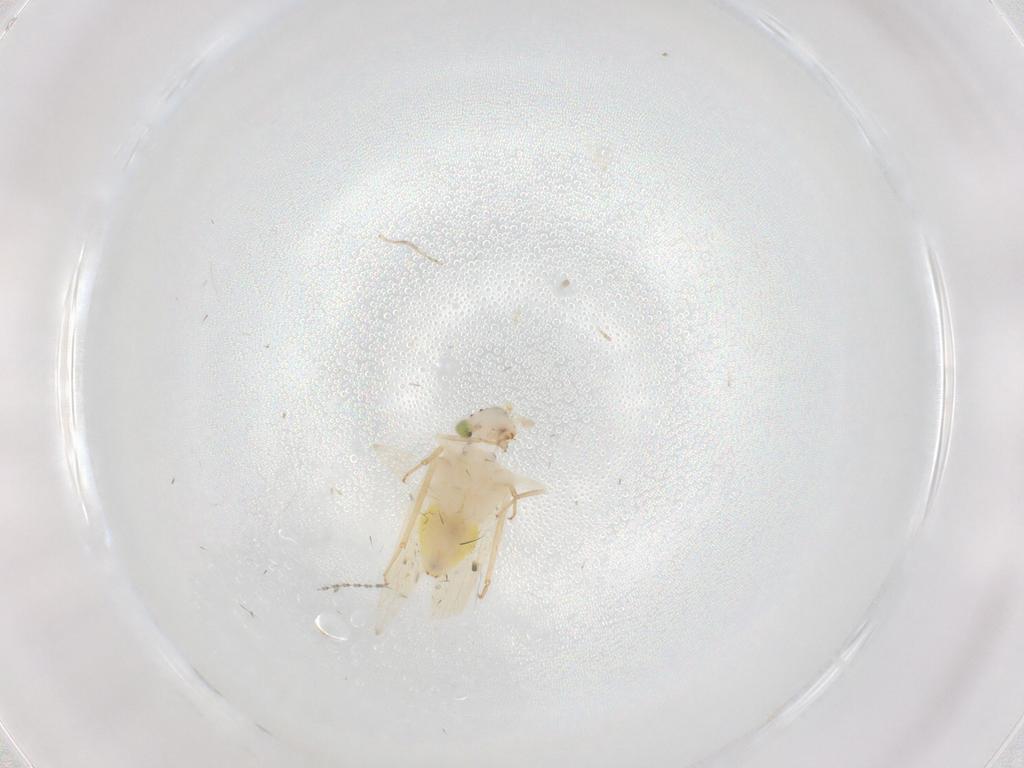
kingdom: Animalia
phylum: Arthropoda
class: Insecta
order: Psocodea
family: Lepidopsocidae
